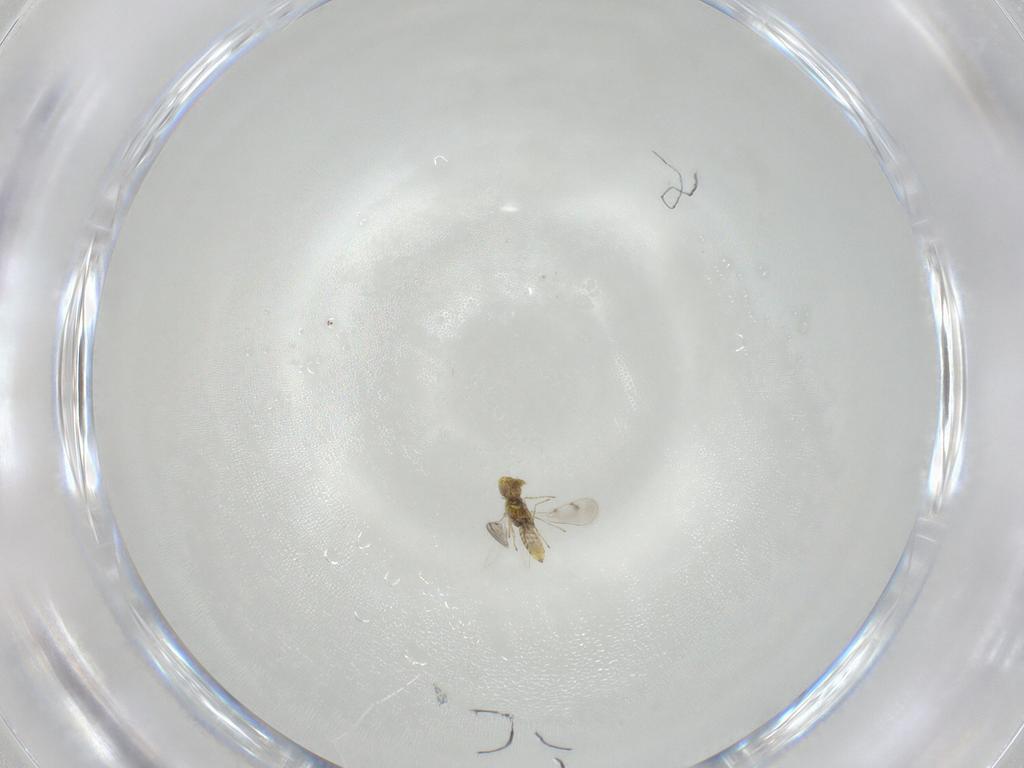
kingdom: Animalia
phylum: Arthropoda
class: Insecta
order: Hymenoptera
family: Eulophidae
